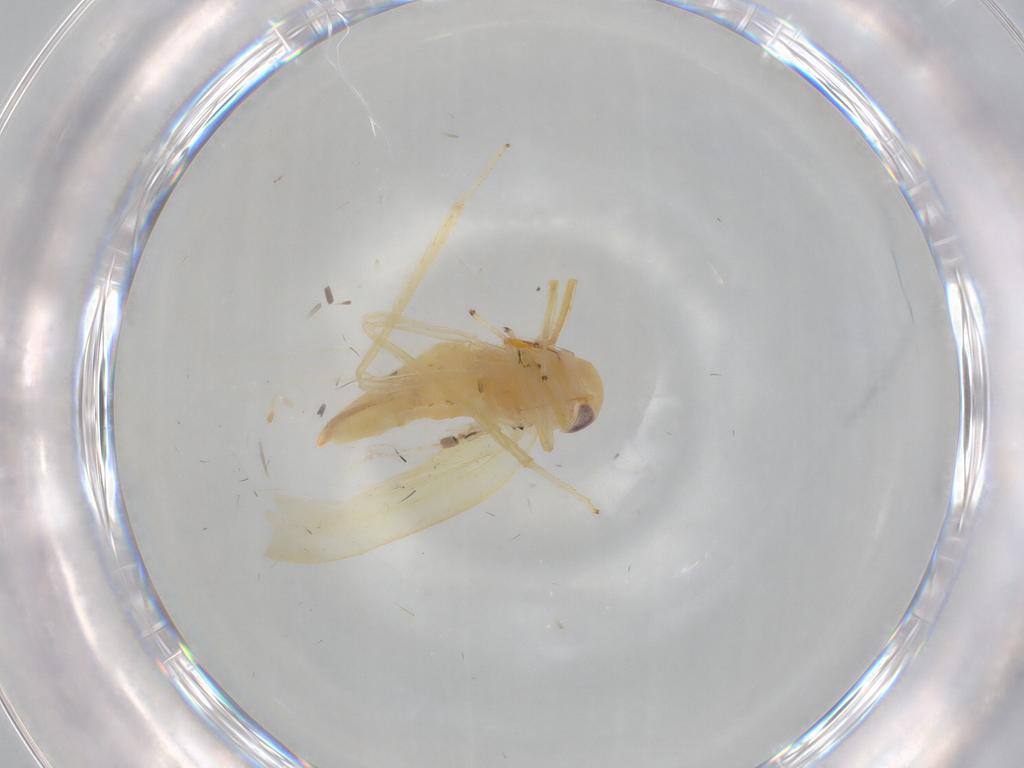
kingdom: Animalia
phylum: Arthropoda
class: Insecta
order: Hemiptera
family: Cicadellidae
